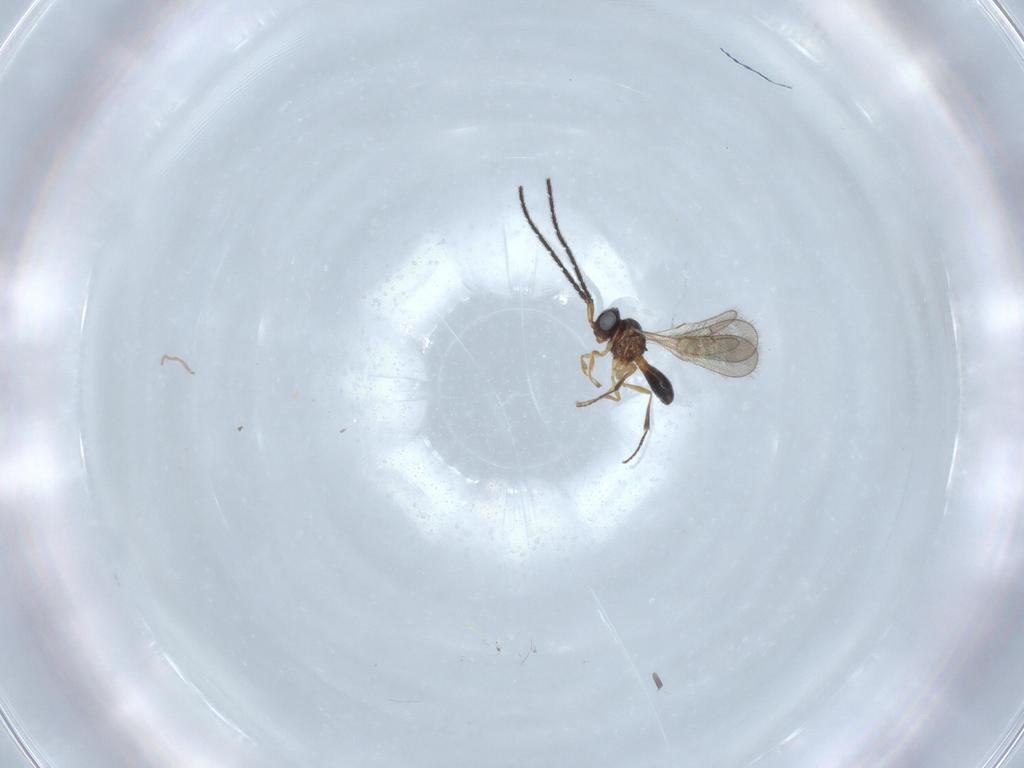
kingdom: Animalia
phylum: Arthropoda
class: Insecta
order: Hymenoptera
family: Scelionidae
